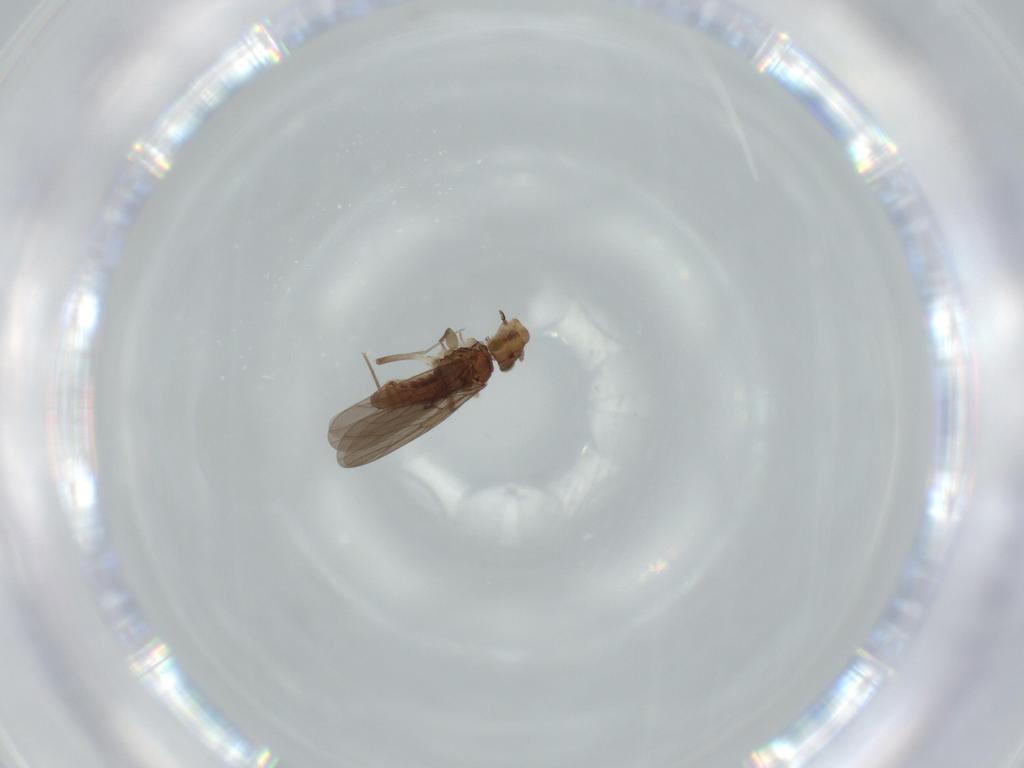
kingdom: Animalia
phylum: Arthropoda
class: Insecta
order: Psocodea
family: Lepidopsocidae
